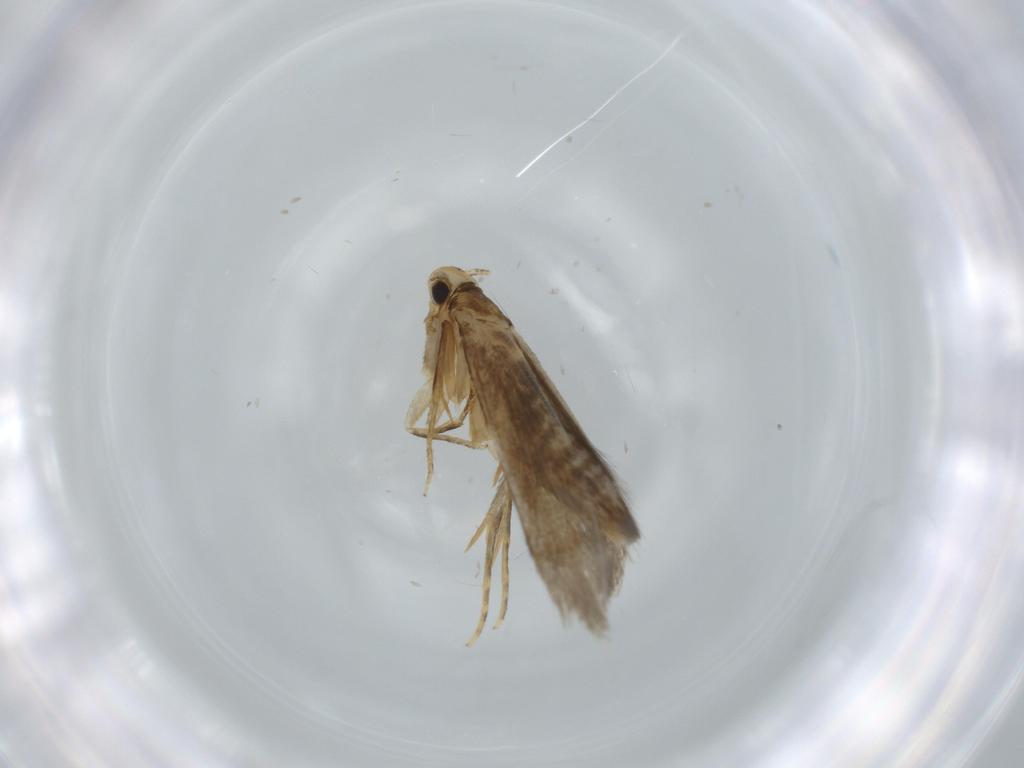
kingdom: Animalia
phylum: Arthropoda
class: Insecta
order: Lepidoptera
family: Tineidae
